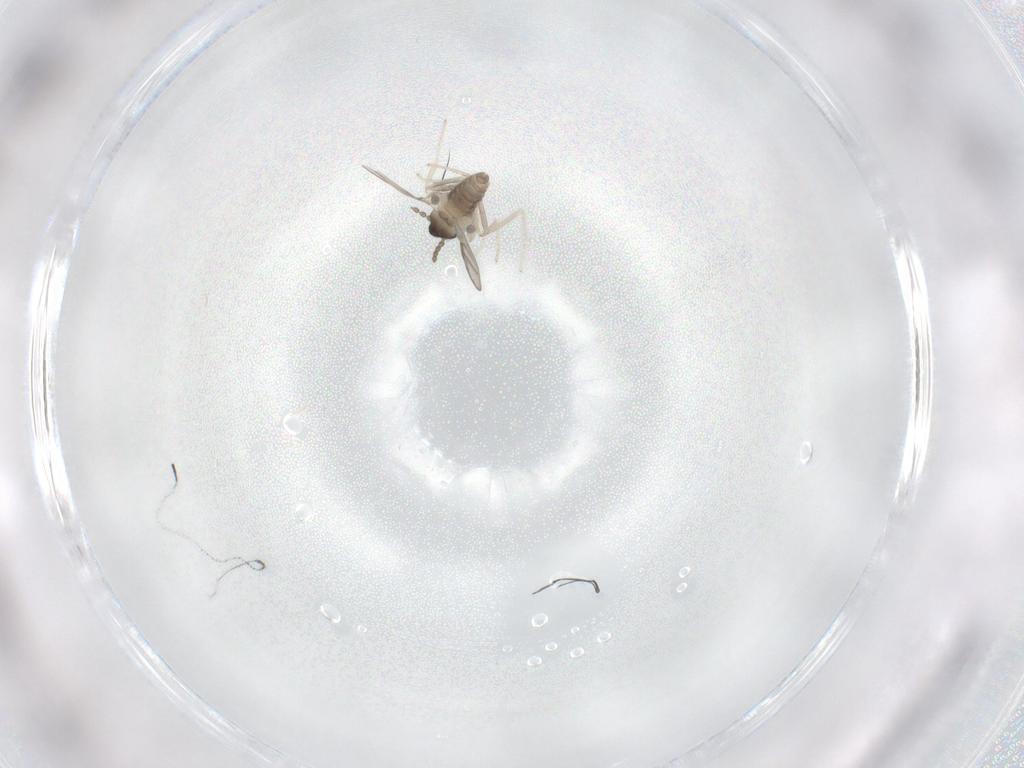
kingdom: Animalia
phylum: Arthropoda
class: Insecta
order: Diptera
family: Cecidomyiidae
